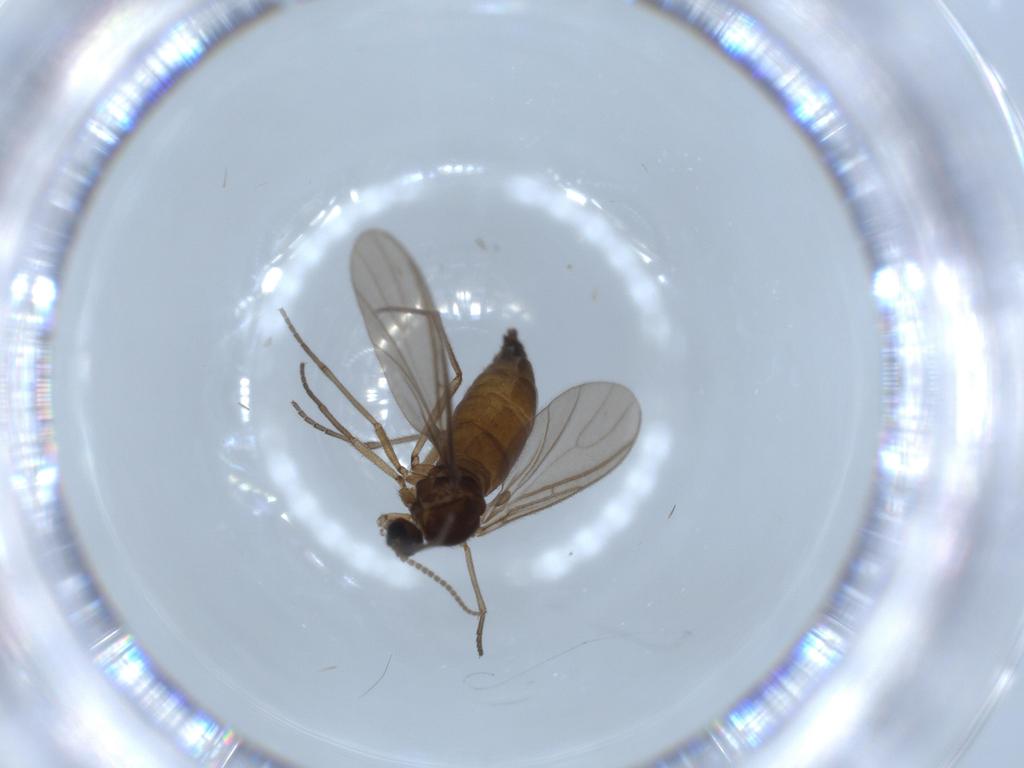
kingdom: Animalia
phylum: Arthropoda
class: Insecta
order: Diptera
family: Sciaridae
